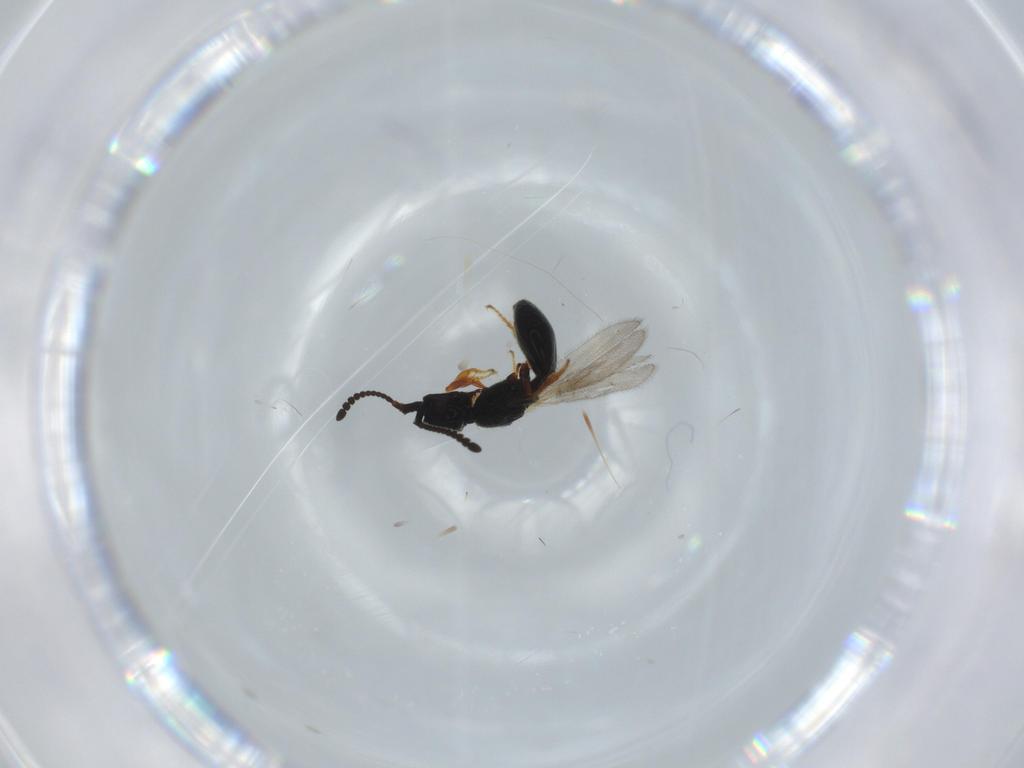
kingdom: Animalia
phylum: Arthropoda
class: Insecta
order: Hymenoptera
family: Diapriidae
